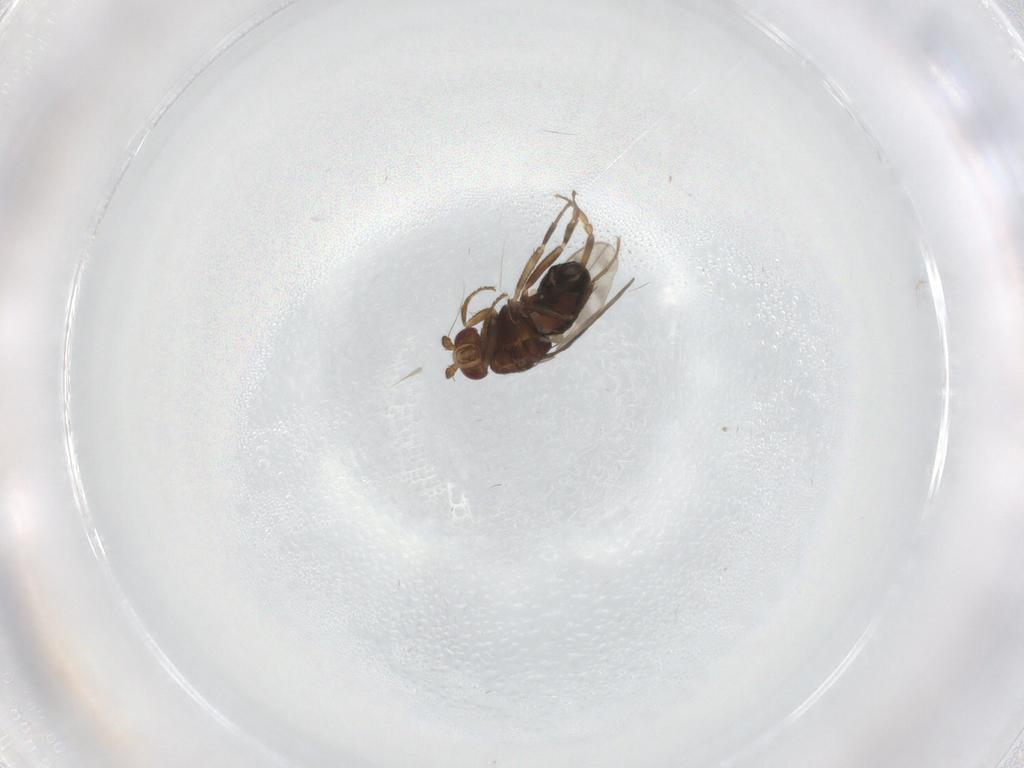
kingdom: Animalia
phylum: Arthropoda
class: Insecta
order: Diptera
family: Sphaeroceridae
